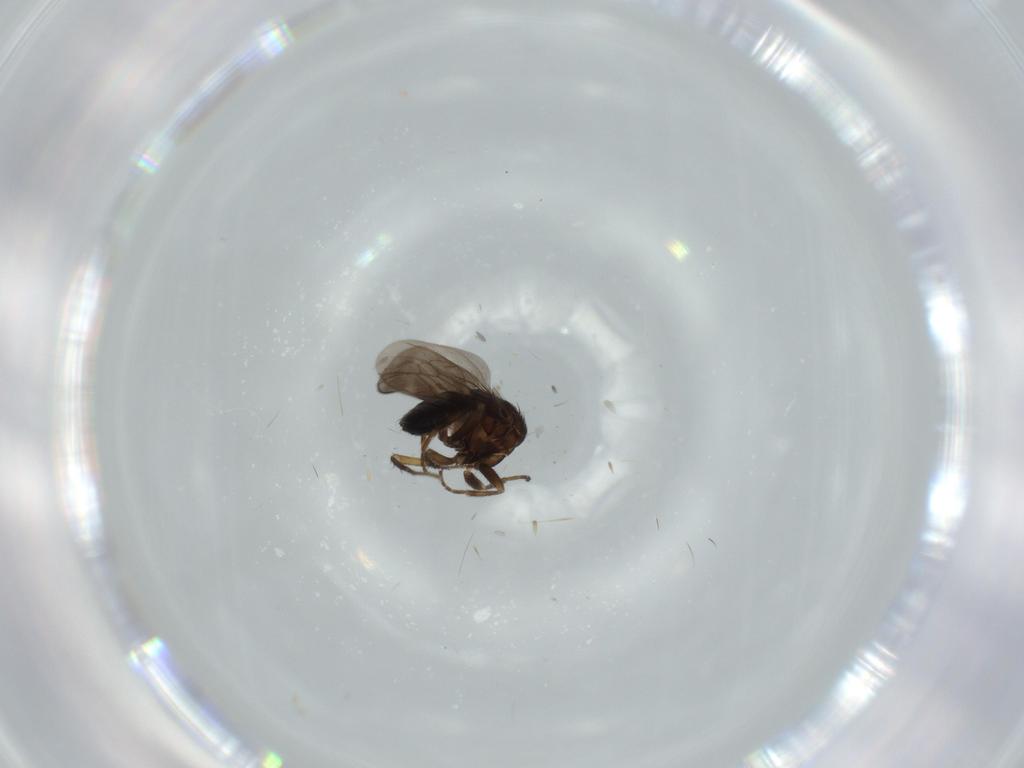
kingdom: Animalia
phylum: Arthropoda
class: Insecta
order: Diptera
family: Sphaeroceridae
